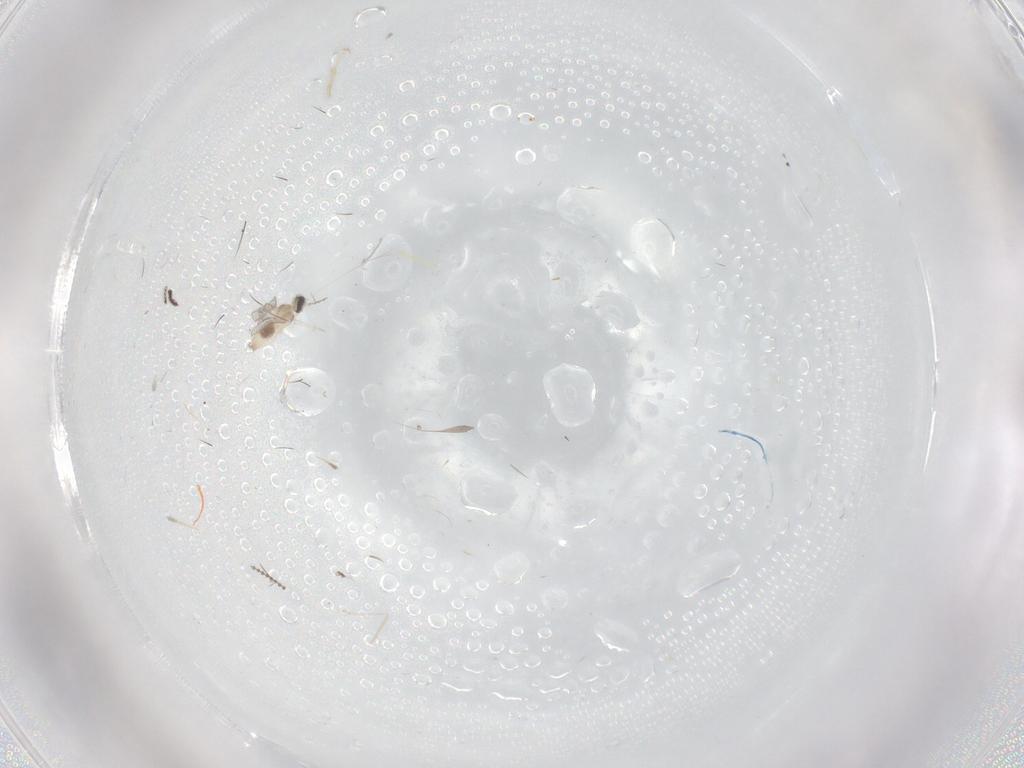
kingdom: Animalia
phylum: Arthropoda
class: Insecta
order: Diptera
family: Chironomidae
